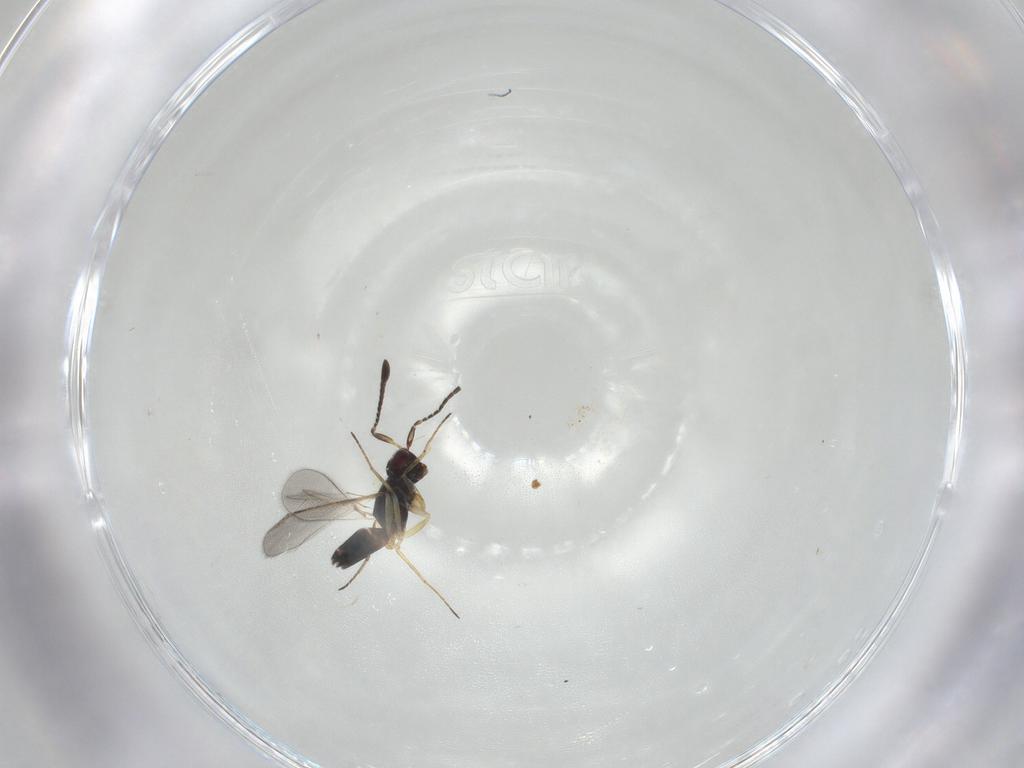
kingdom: Animalia
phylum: Arthropoda
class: Insecta
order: Diptera
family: Ceratopogonidae
